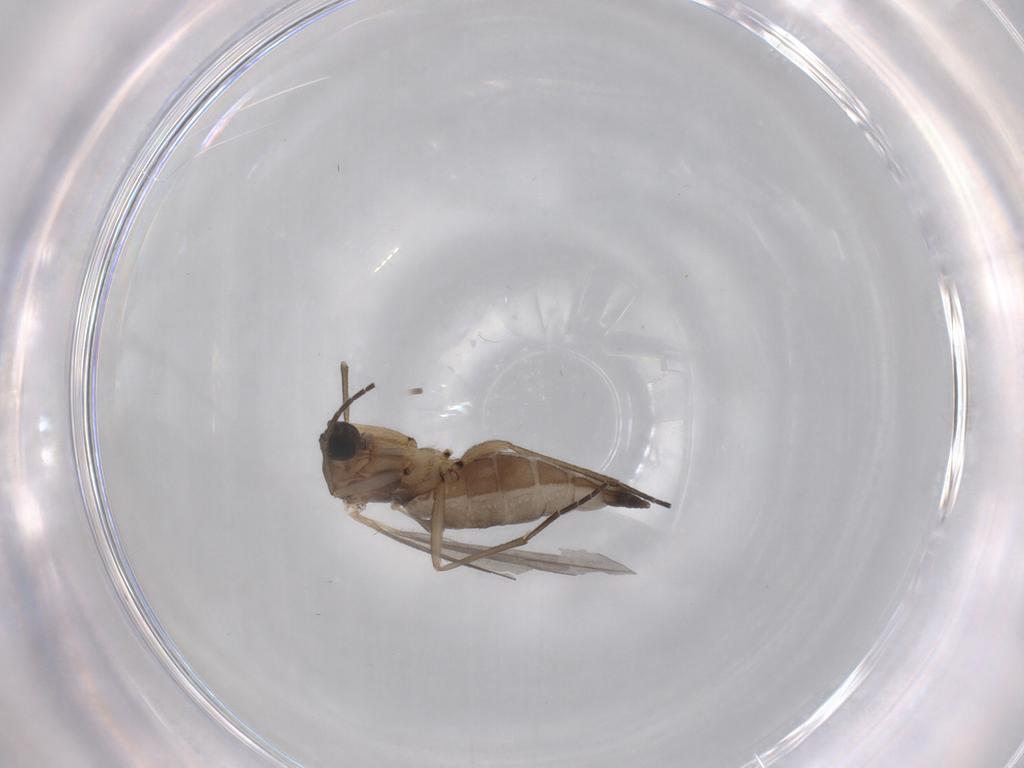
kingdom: Animalia
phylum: Arthropoda
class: Insecta
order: Diptera
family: Sciaridae
